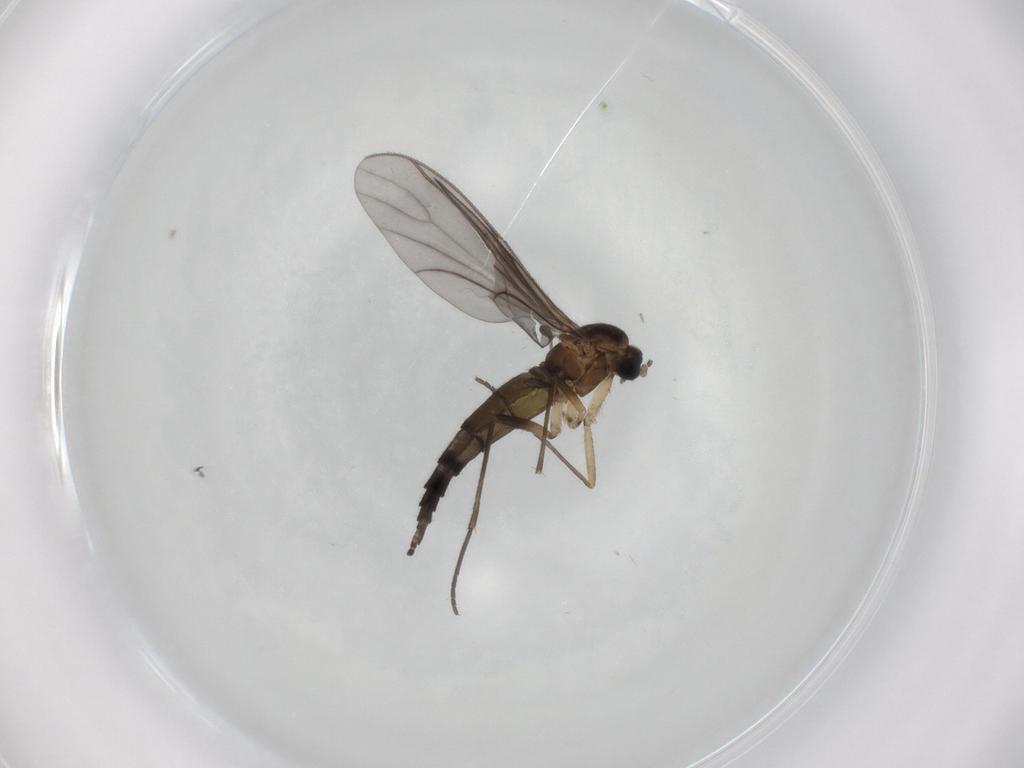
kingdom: Animalia
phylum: Arthropoda
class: Insecta
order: Diptera
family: Sciaridae
